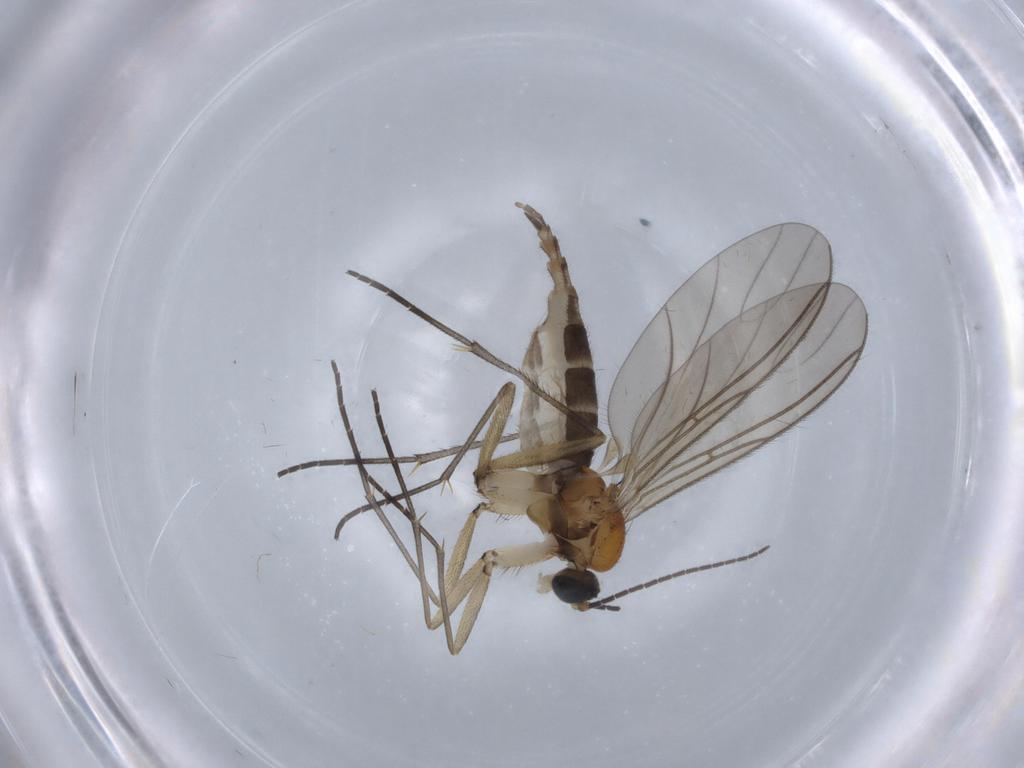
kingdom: Animalia
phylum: Arthropoda
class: Insecta
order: Diptera
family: Sciaridae
